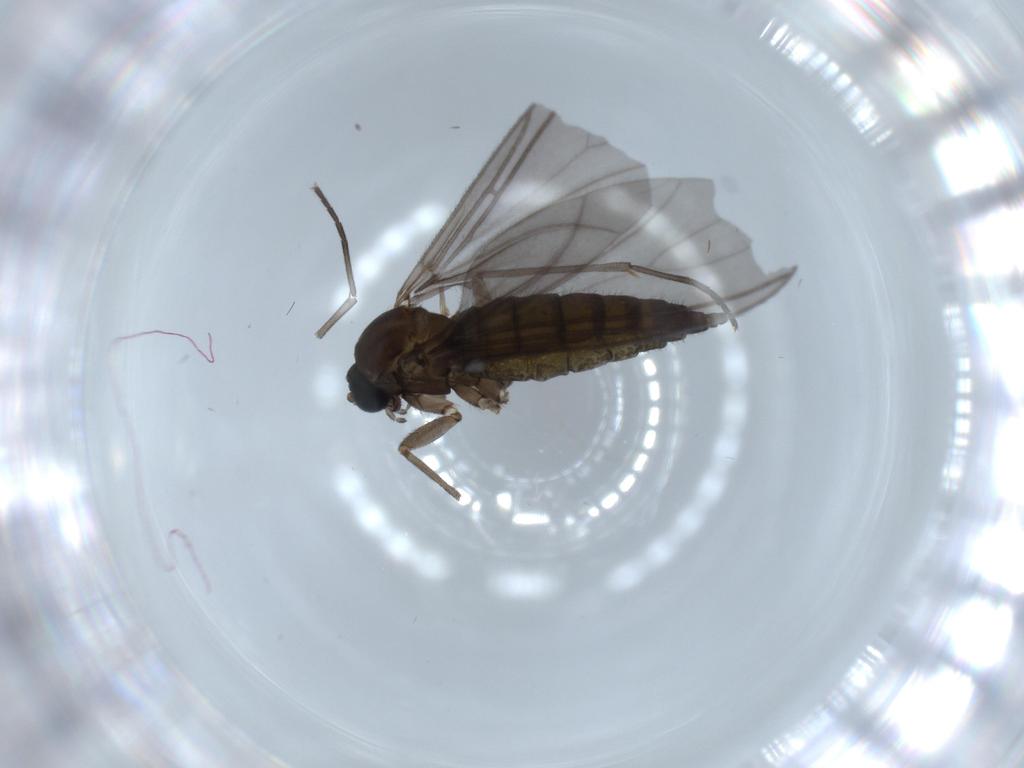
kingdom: Animalia
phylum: Arthropoda
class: Insecta
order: Diptera
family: Sciaridae
